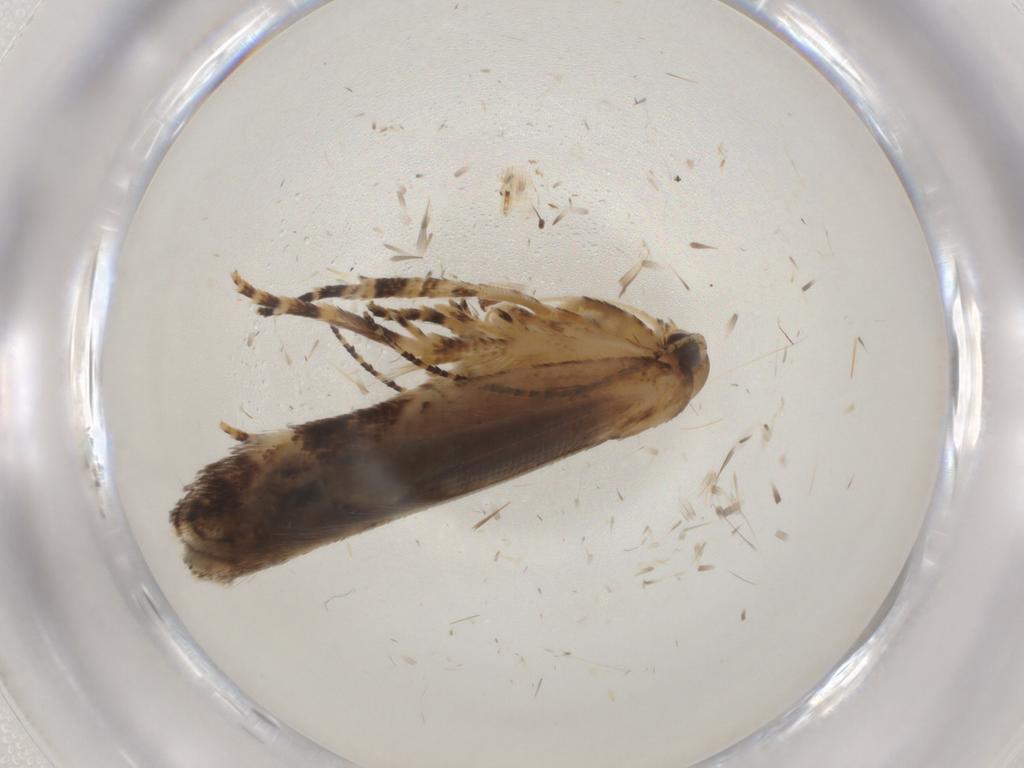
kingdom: Animalia
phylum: Arthropoda
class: Insecta
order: Lepidoptera
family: Gelechiidae
